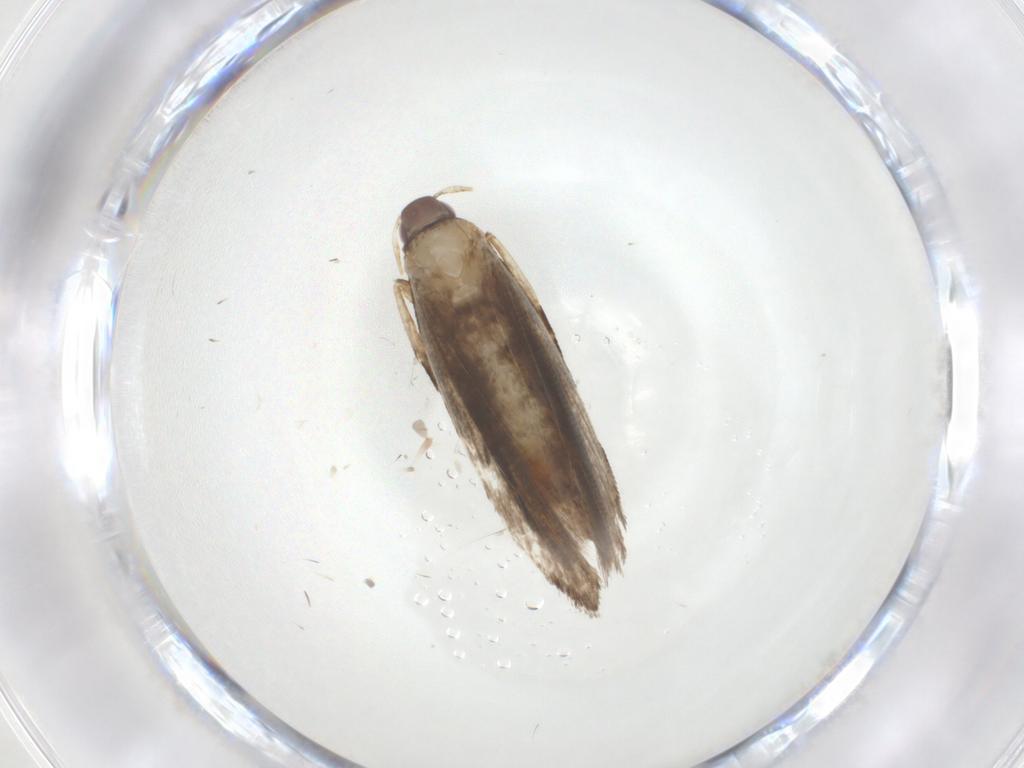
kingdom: Animalia
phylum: Arthropoda
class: Insecta
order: Lepidoptera
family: Gelechiidae
